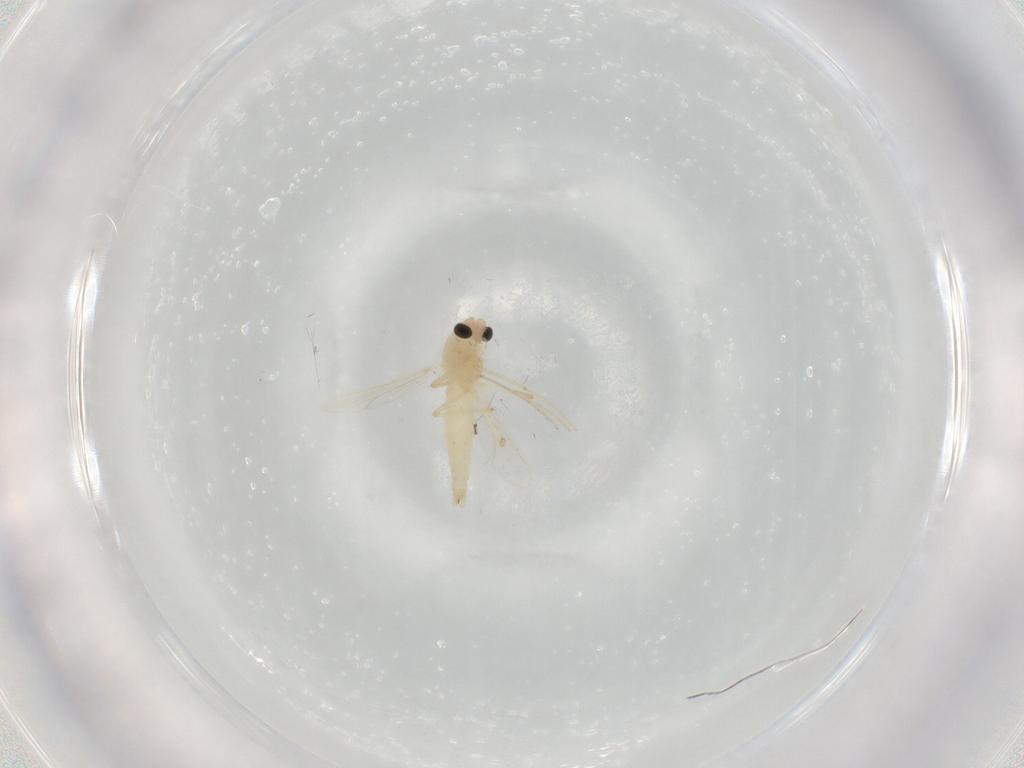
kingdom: Animalia
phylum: Arthropoda
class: Insecta
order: Diptera
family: Chironomidae
